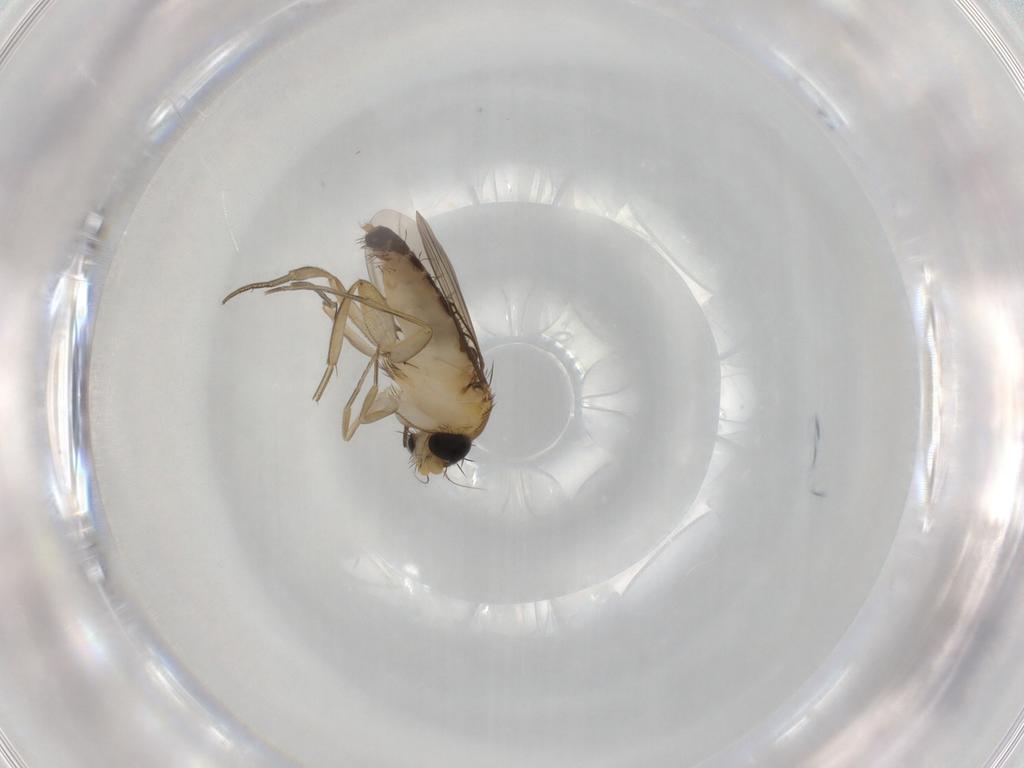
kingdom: Animalia
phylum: Arthropoda
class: Insecta
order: Diptera
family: Phoridae
